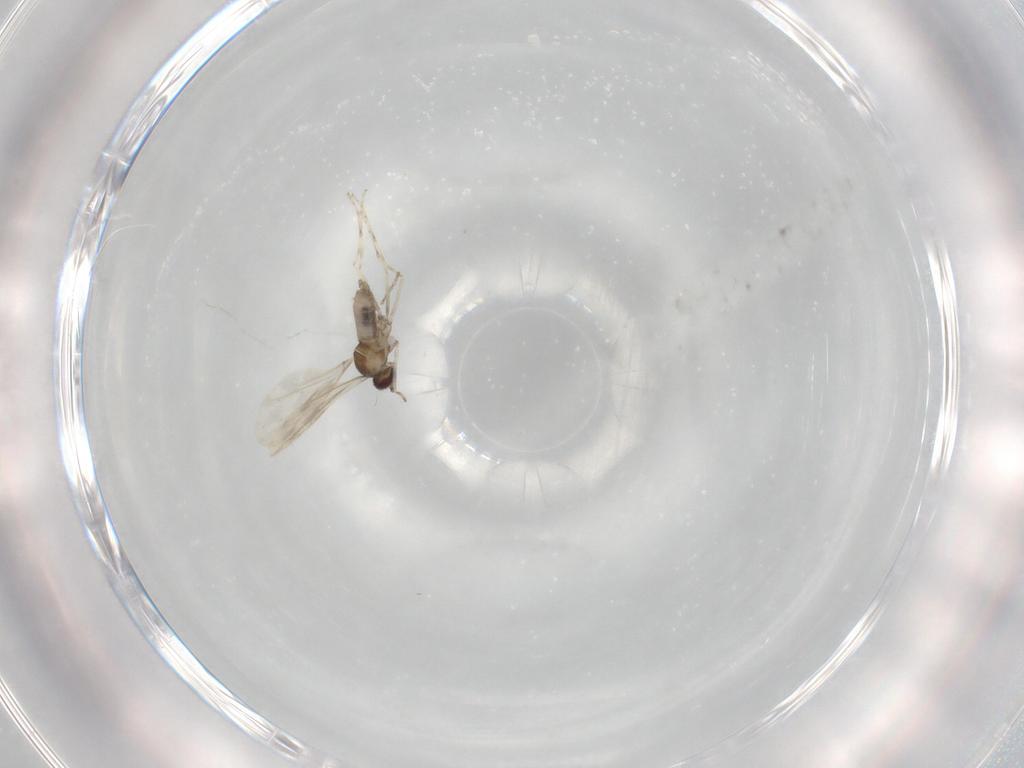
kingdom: Animalia
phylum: Arthropoda
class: Insecta
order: Diptera
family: Cecidomyiidae
